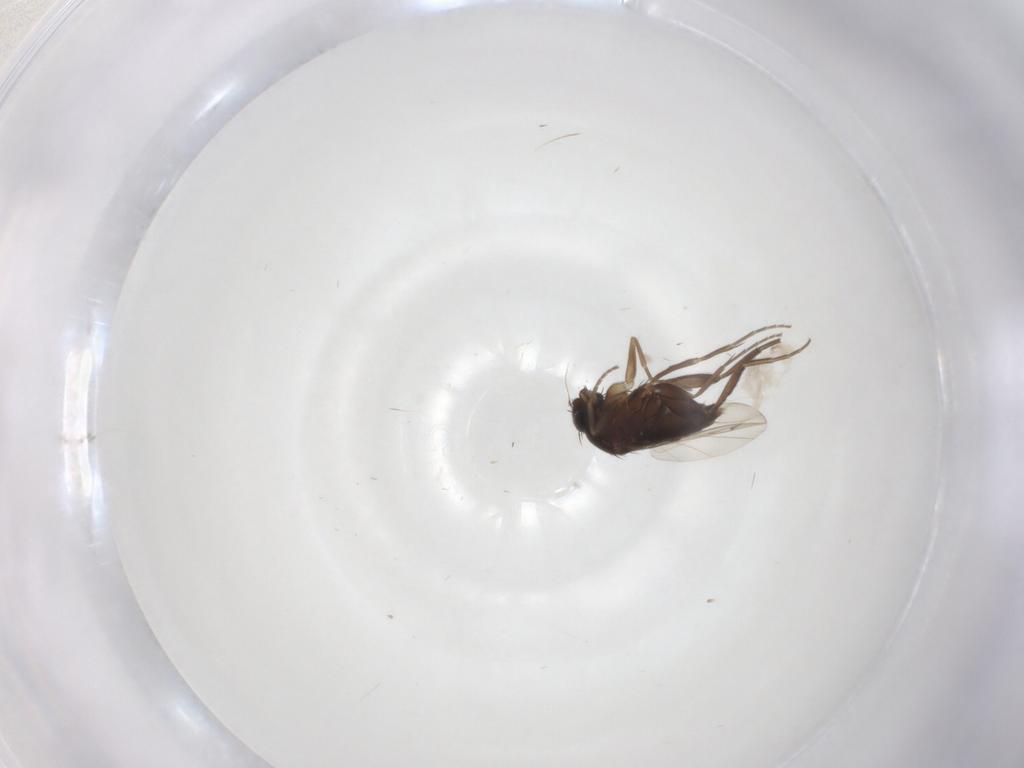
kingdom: Animalia
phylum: Arthropoda
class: Insecta
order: Diptera
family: Phoridae
